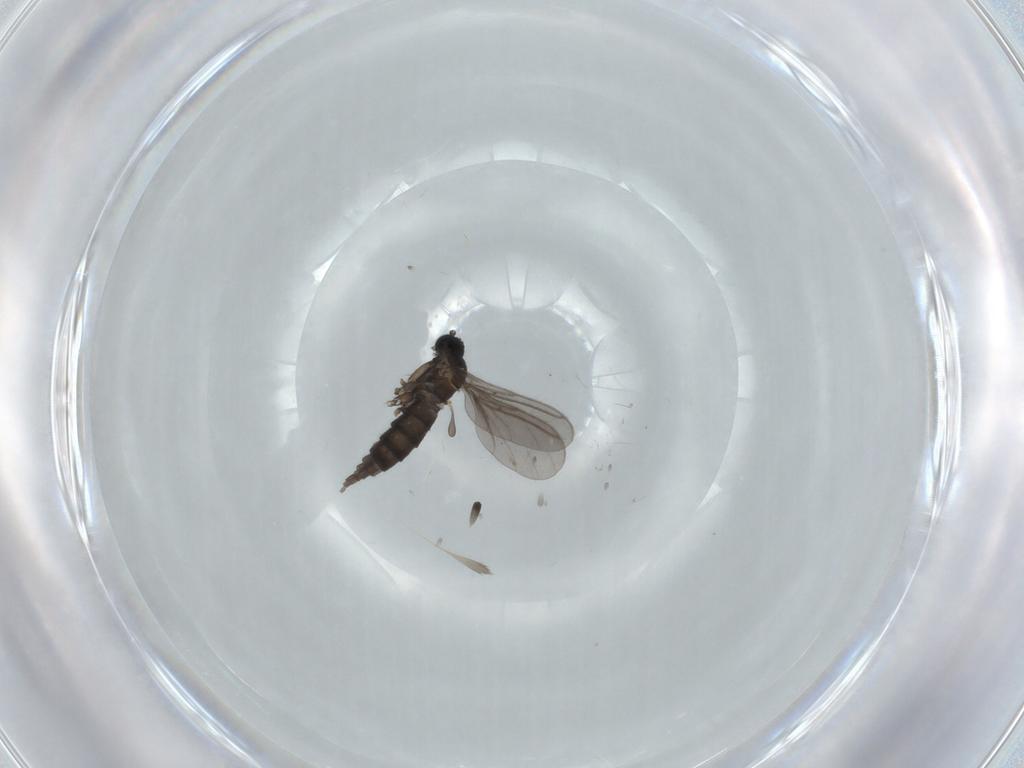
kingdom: Animalia
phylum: Arthropoda
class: Insecta
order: Diptera
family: Sciaridae
